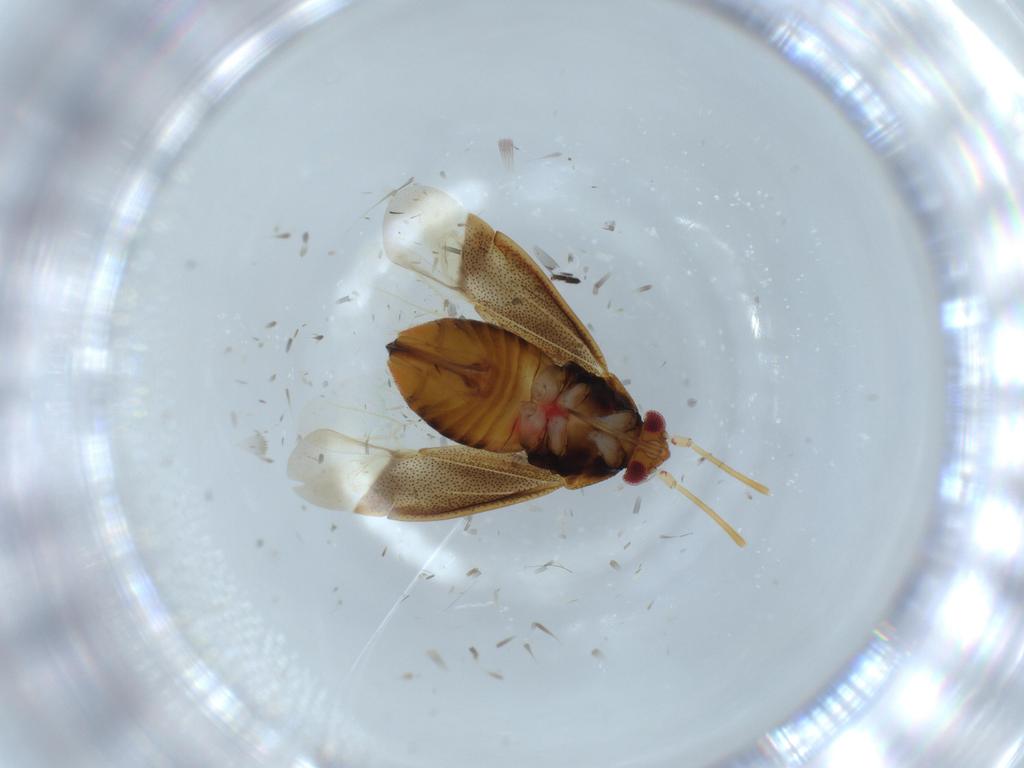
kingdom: Animalia
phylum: Arthropoda
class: Insecta
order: Hemiptera
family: Miridae
